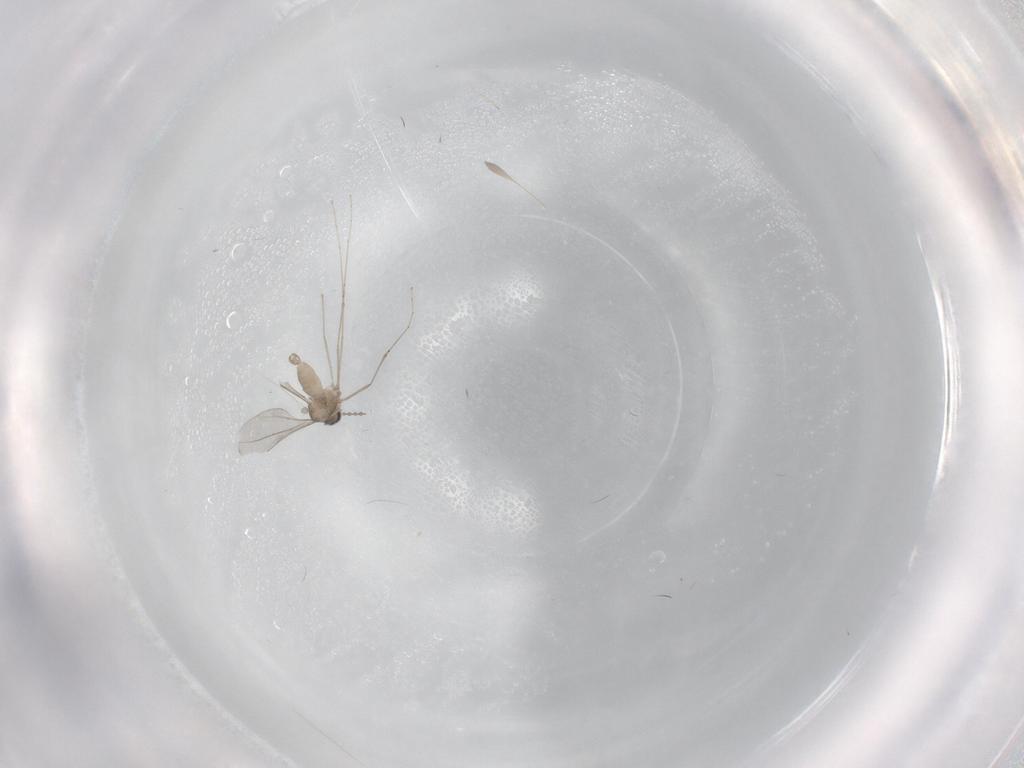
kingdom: Animalia
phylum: Arthropoda
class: Insecta
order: Diptera
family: Cecidomyiidae
